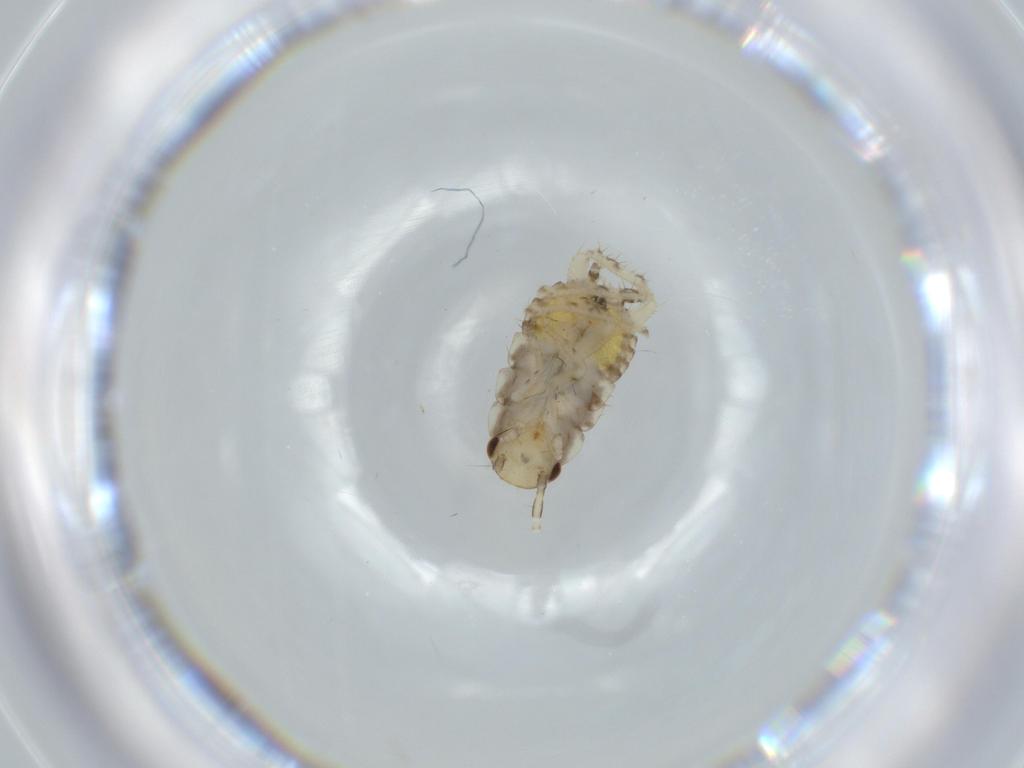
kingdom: Animalia
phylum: Arthropoda
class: Insecta
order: Blattodea
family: Ectobiidae
